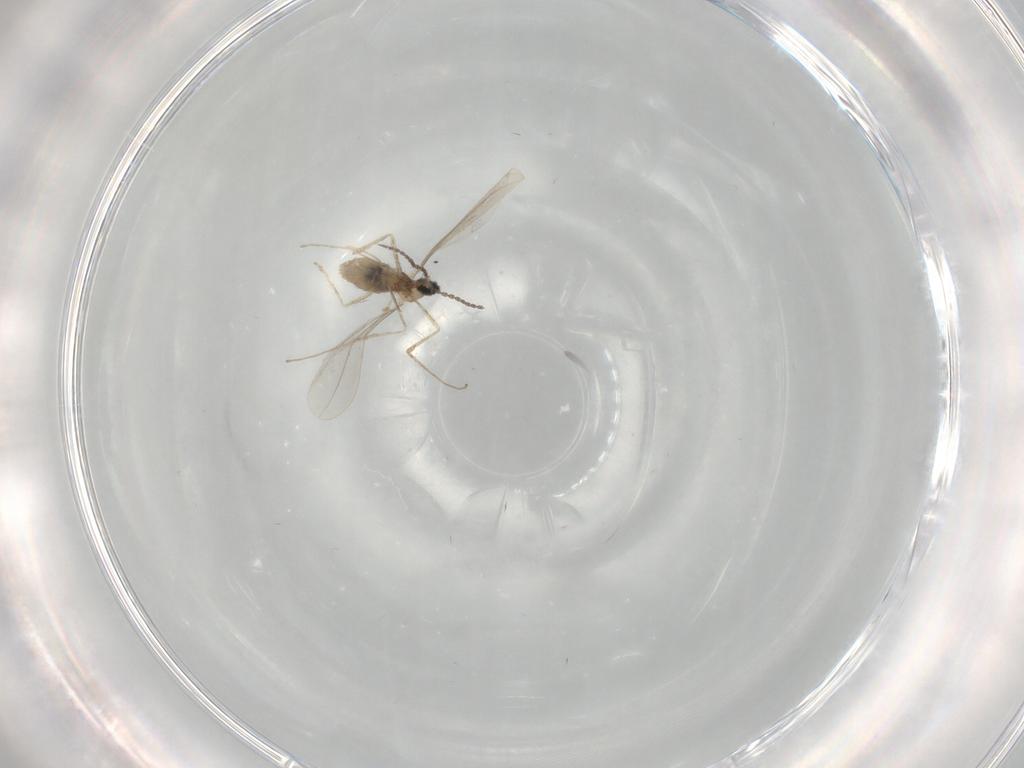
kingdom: Animalia
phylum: Arthropoda
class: Insecta
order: Diptera
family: Cecidomyiidae
